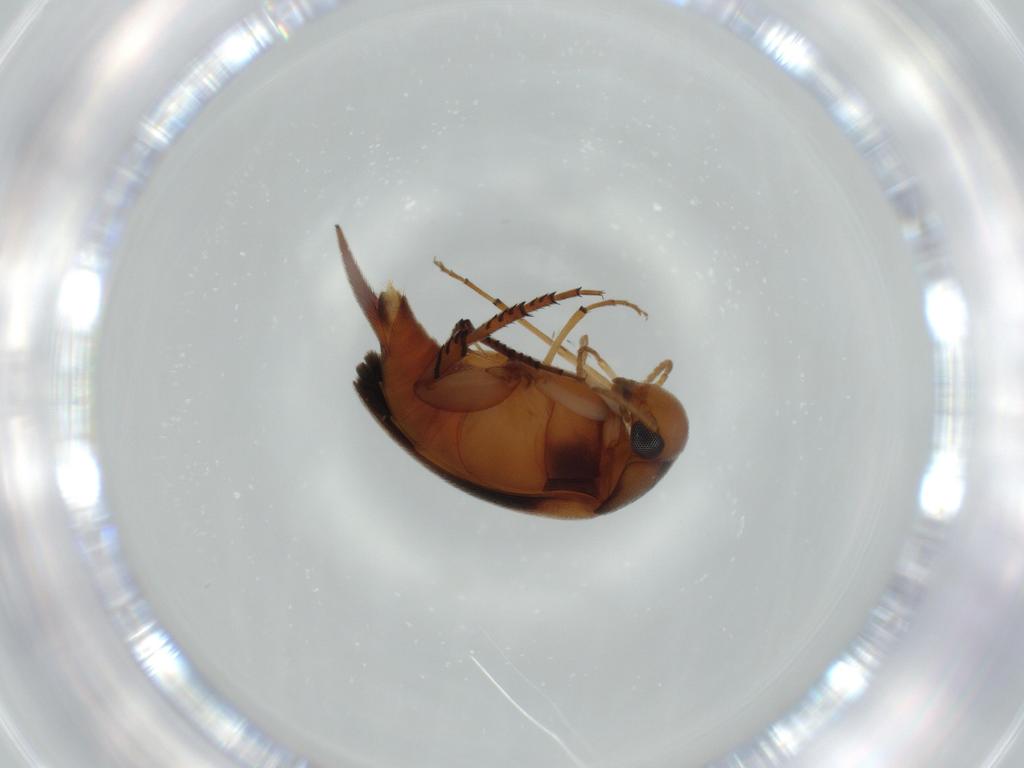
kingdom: Animalia
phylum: Arthropoda
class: Insecta
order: Coleoptera
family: Mordellidae
